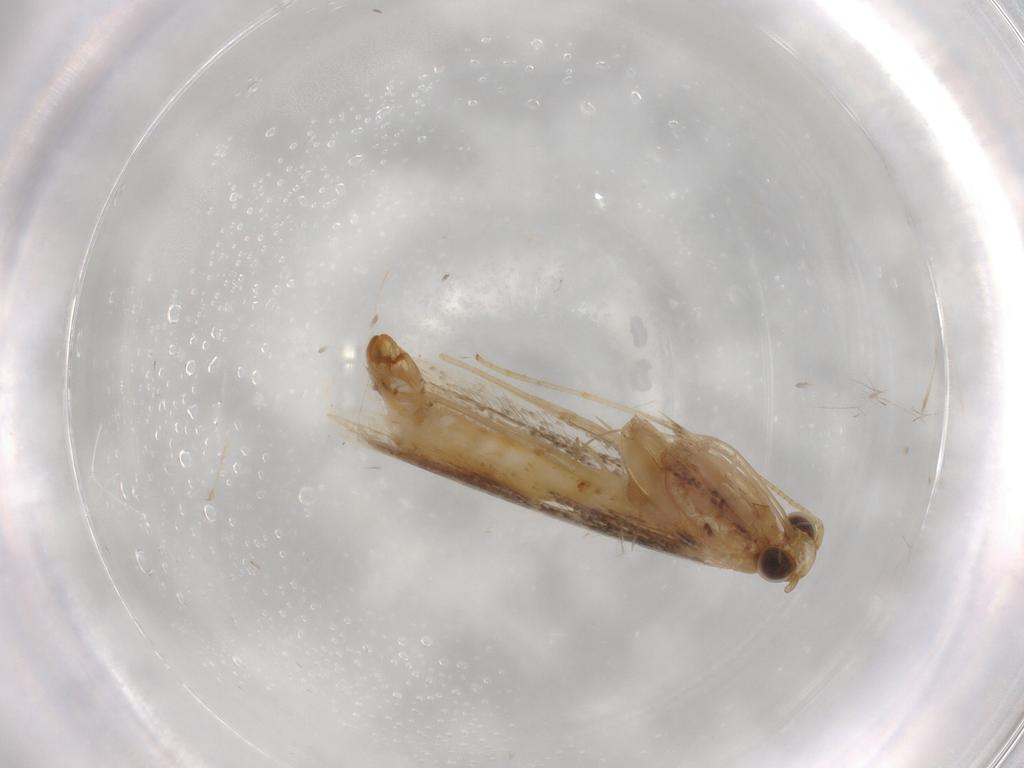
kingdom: Animalia
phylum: Arthropoda
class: Insecta
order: Lepidoptera
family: Gracillariidae
